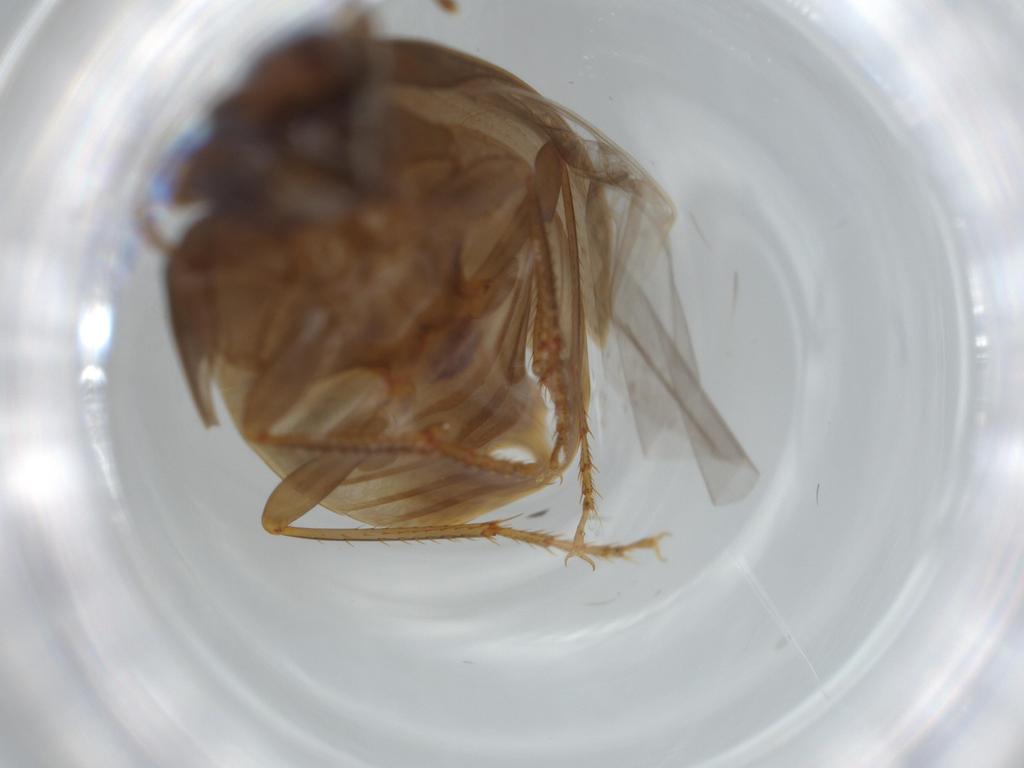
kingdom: Animalia
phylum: Arthropoda
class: Insecta
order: Coleoptera
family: Carabidae
